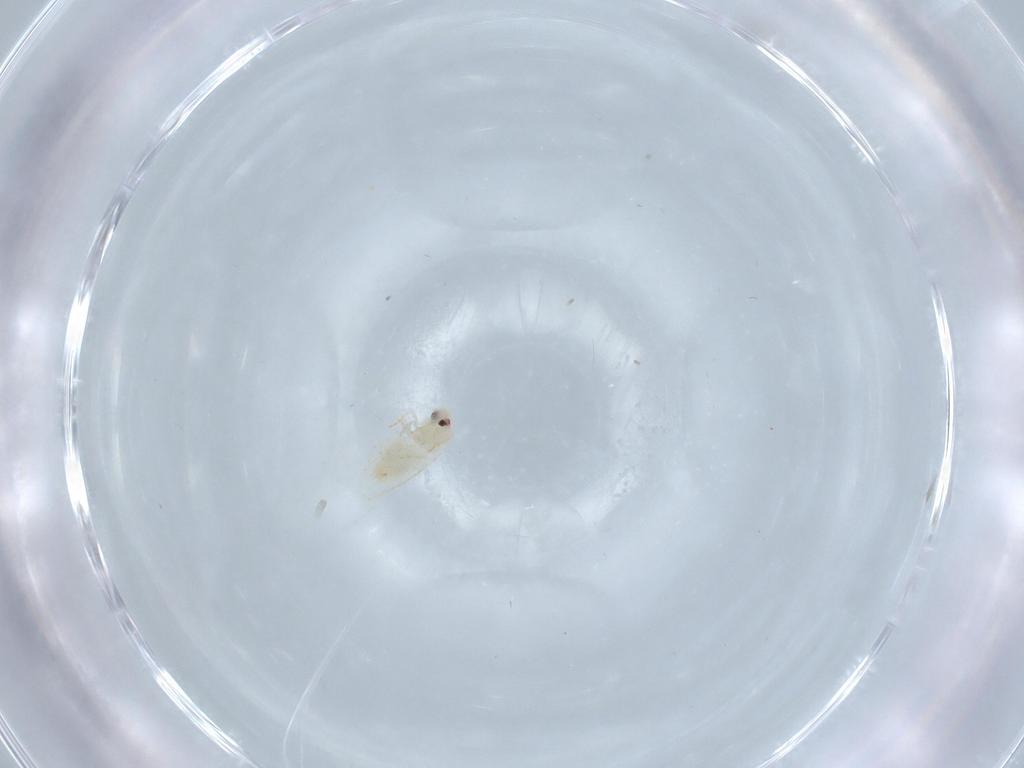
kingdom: Animalia
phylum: Arthropoda
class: Insecta
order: Hemiptera
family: Aleyrodidae
